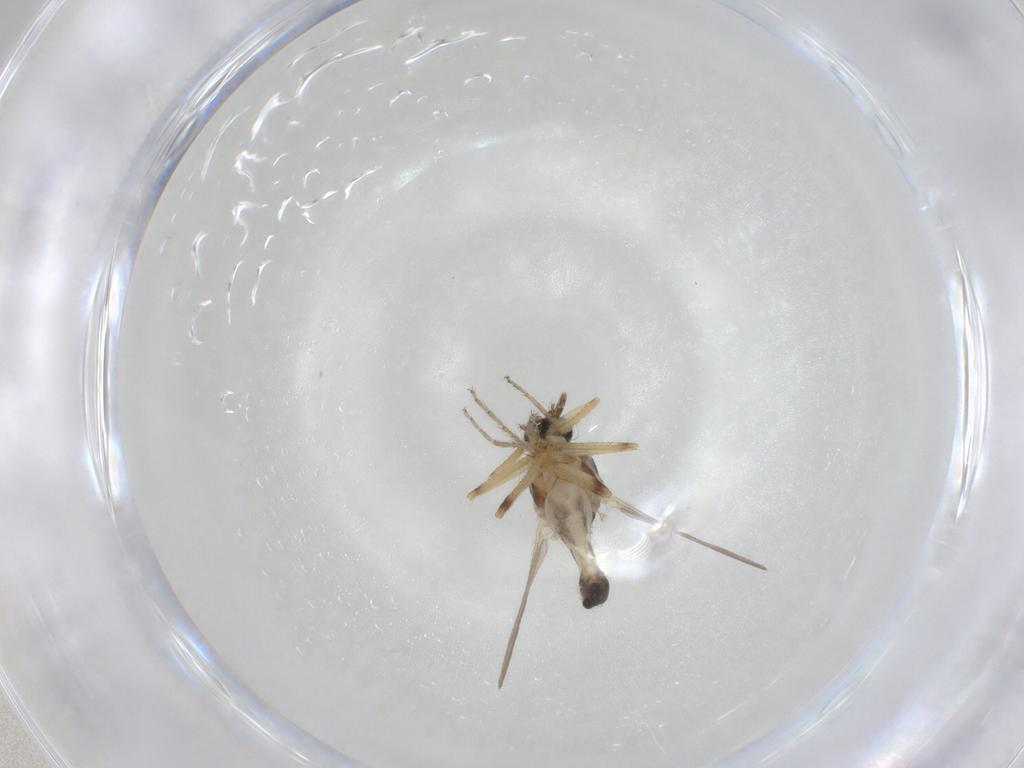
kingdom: Animalia
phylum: Arthropoda
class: Insecta
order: Diptera
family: Ceratopogonidae
